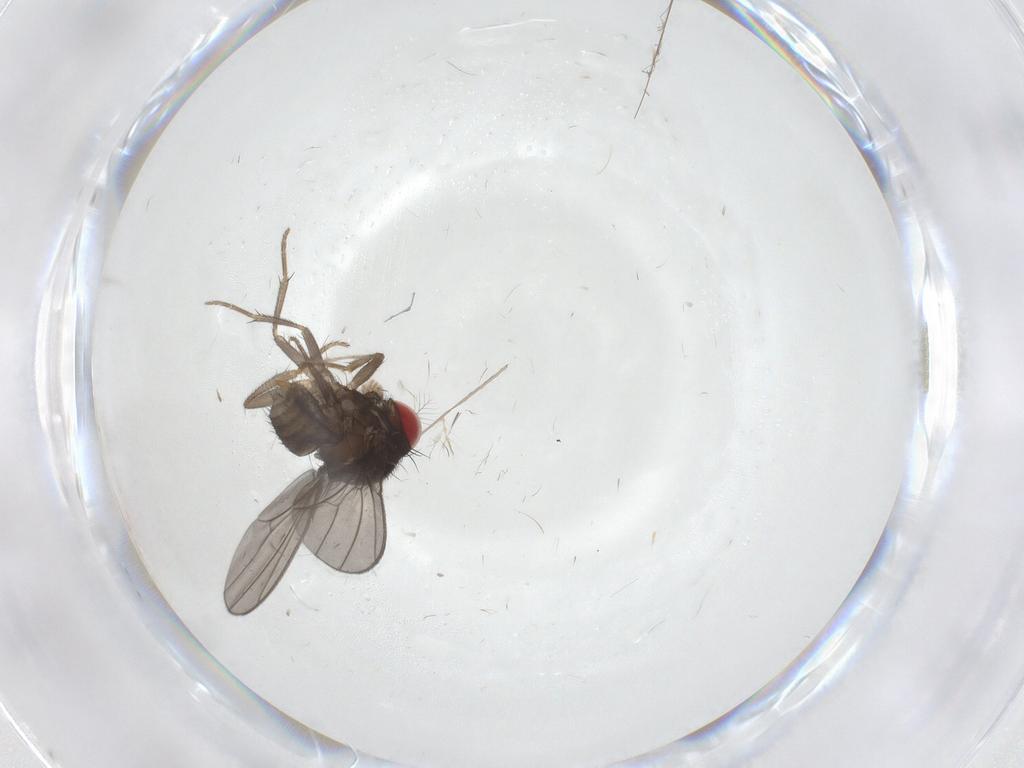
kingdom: Animalia
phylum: Arthropoda
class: Insecta
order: Diptera
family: Drosophilidae
